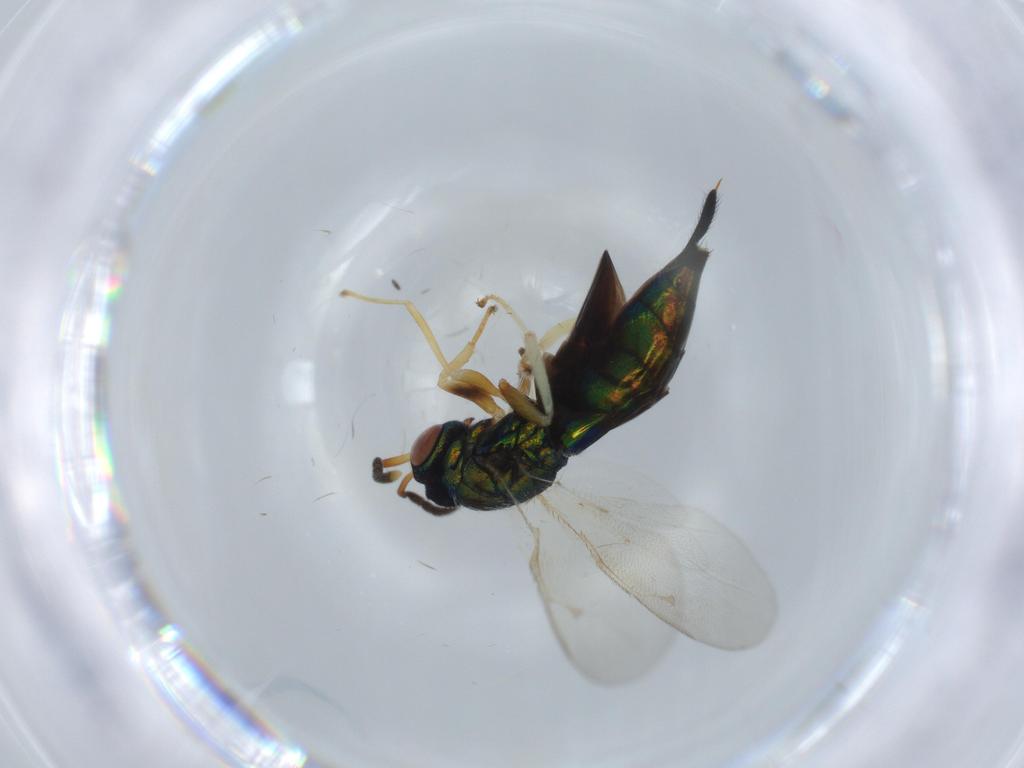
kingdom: Animalia
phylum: Arthropoda
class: Insecta
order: Hymenoptera
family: Pteromalidae
